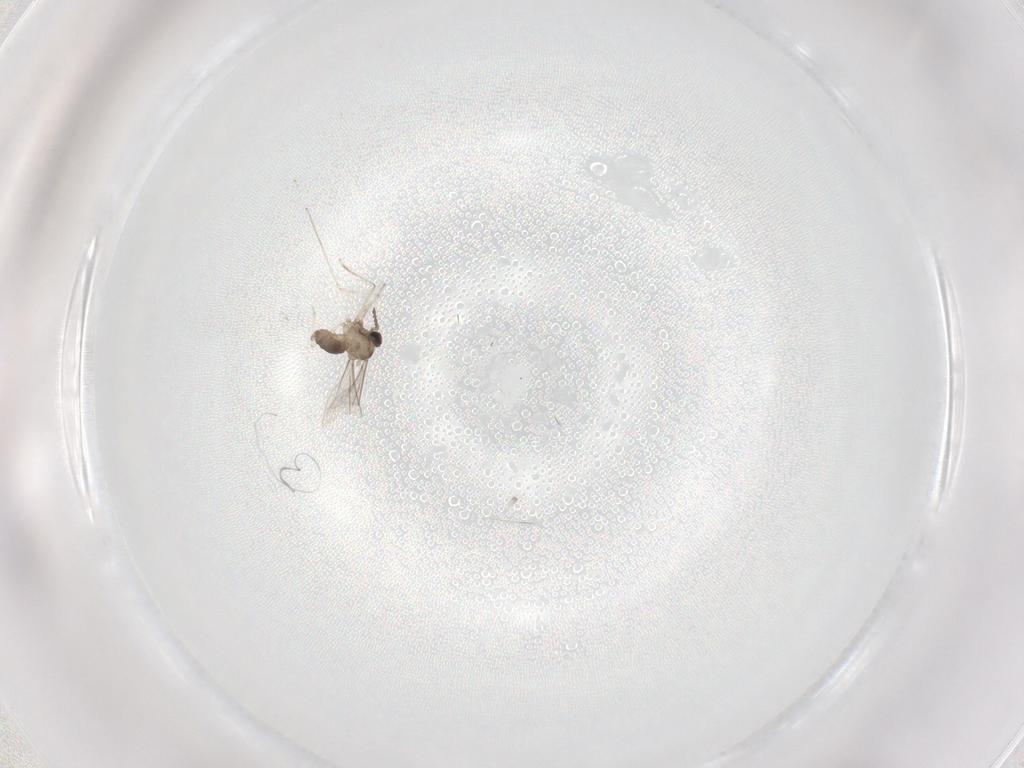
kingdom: Animalia
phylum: Arthropoda
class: Insecta
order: Diptera
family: Cecidomyiidae
